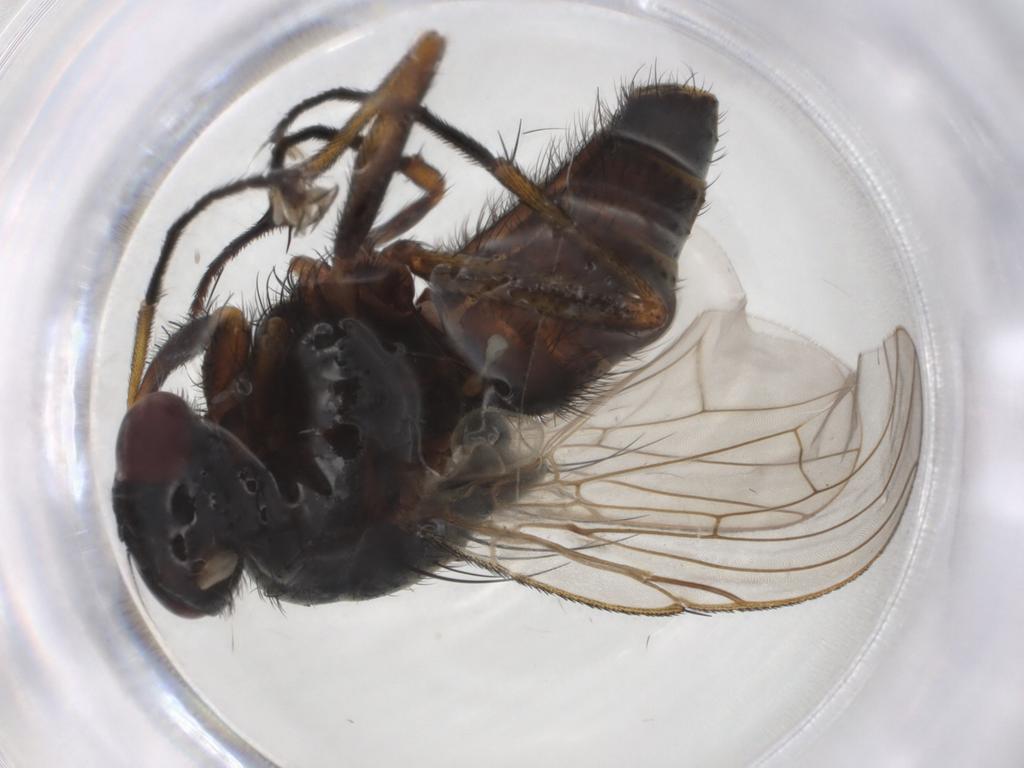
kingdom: Animalia
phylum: Arthropoda
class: Insecta
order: Diptera
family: Muscidae
